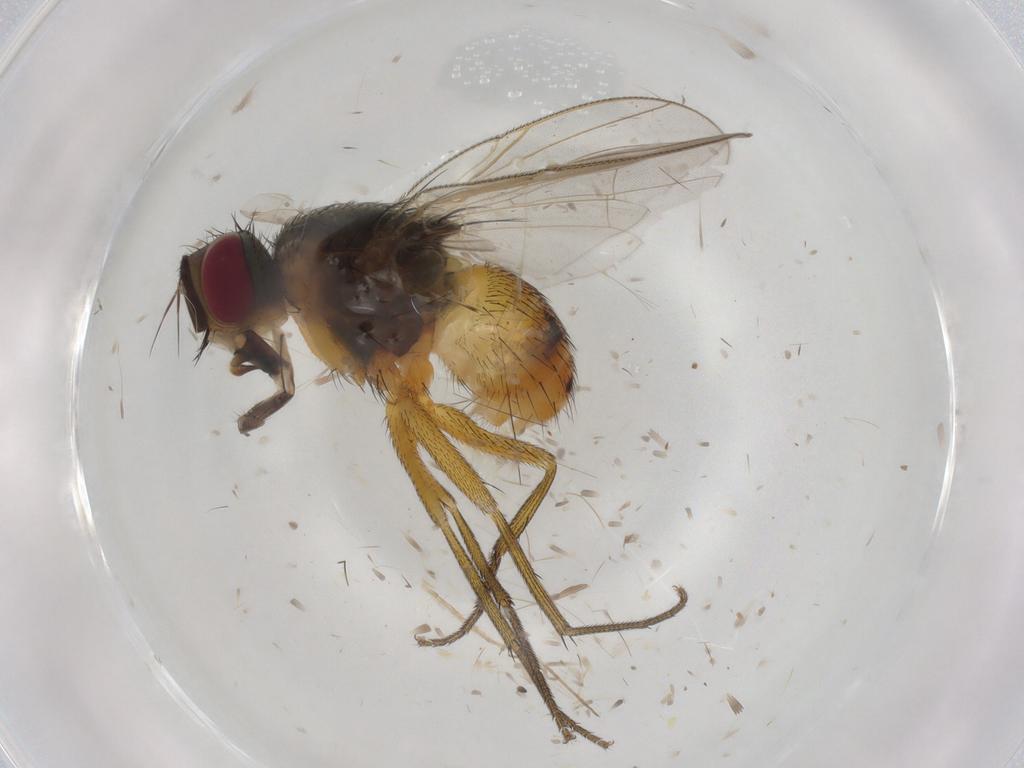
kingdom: Animalia
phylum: Arthropoda
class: Insecta
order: Diptera
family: Muscidae
